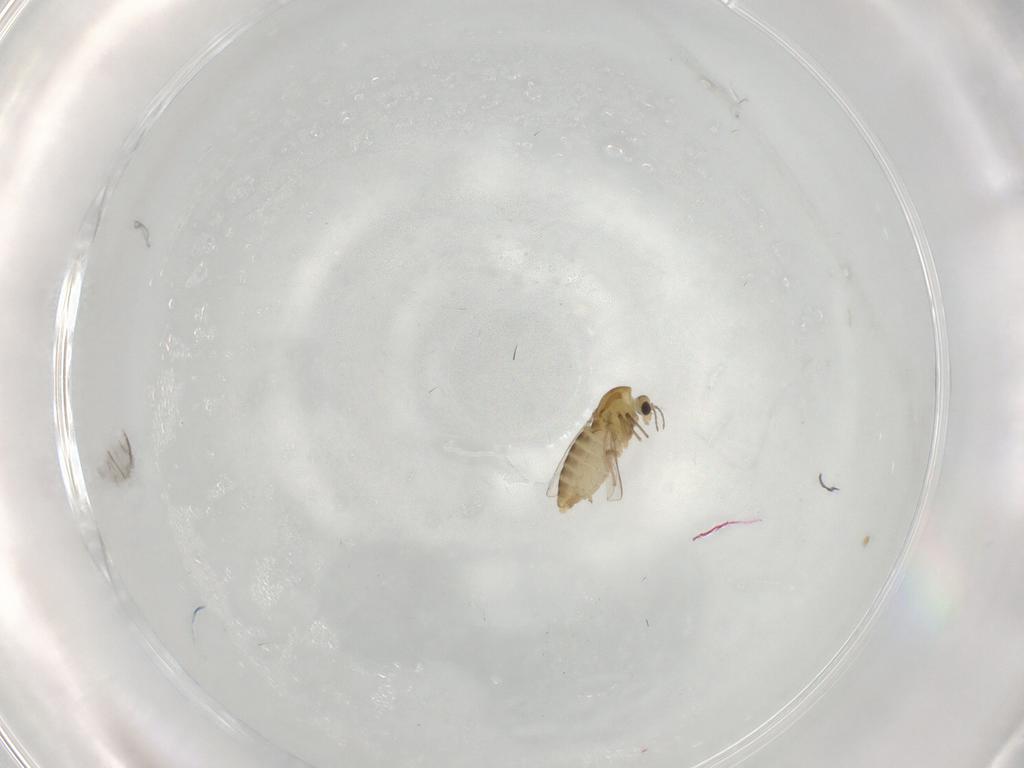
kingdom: Animalia
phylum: Arthropoda
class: Insecta
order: Diptera
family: Chironomidae
